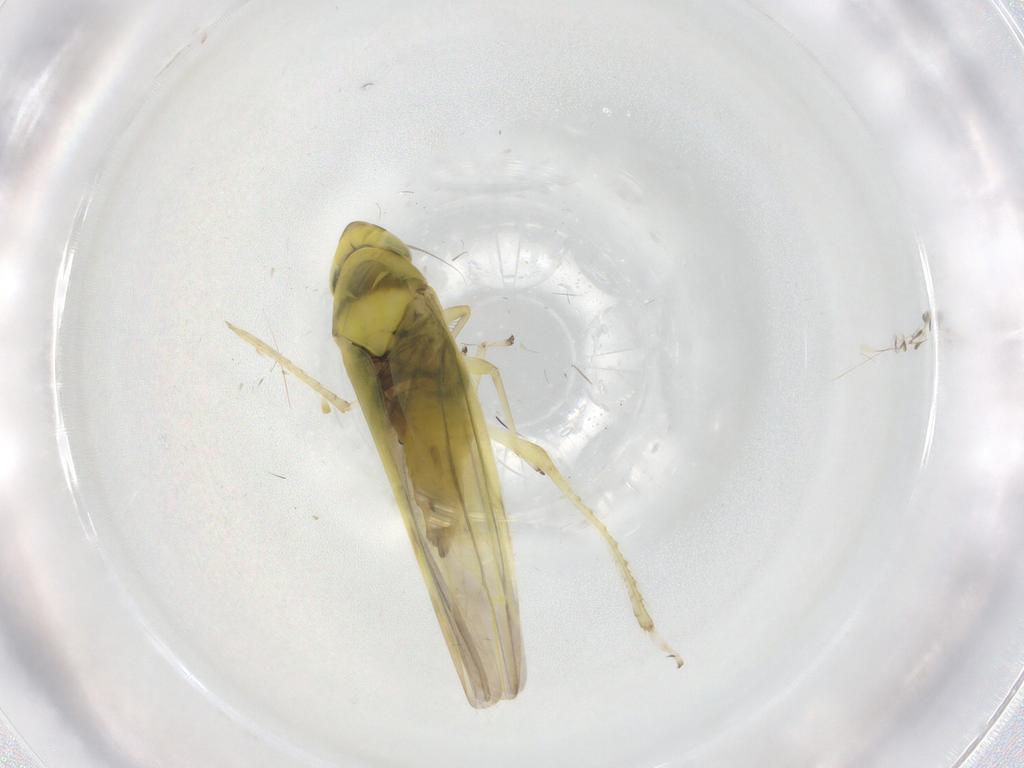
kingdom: Animalia
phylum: Arthropoda
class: Insecta
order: Hemiptera
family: Cicadellidae
